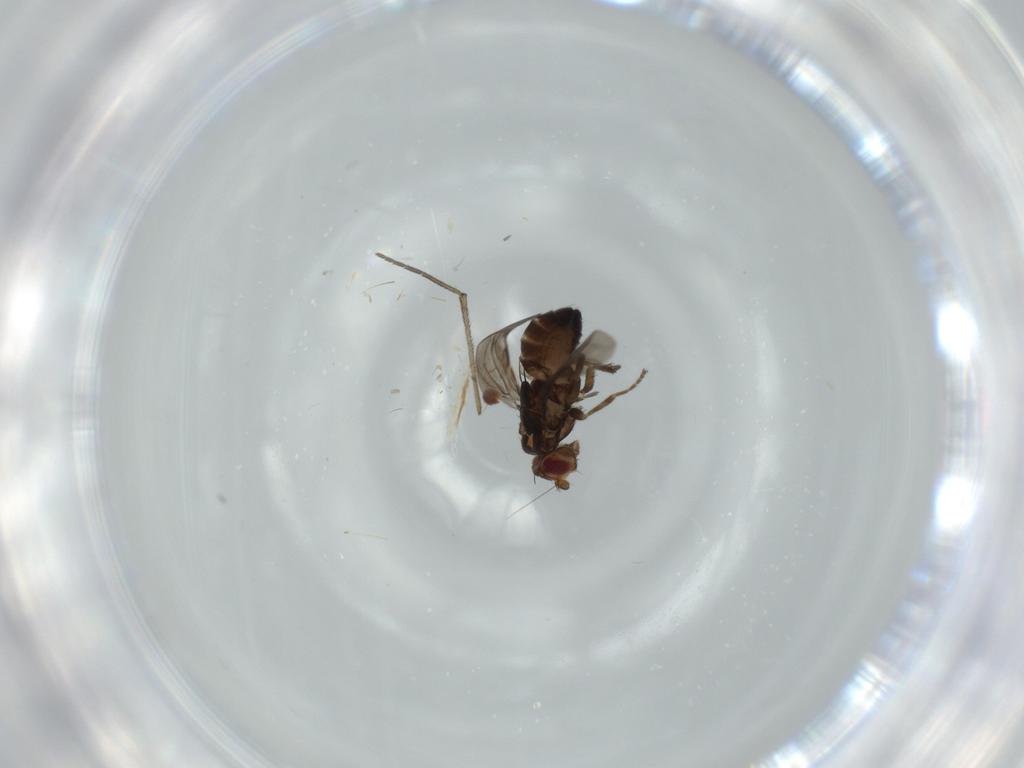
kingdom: Animalia
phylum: Arthropoda
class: Insecta
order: Diptera
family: Sciaridae
